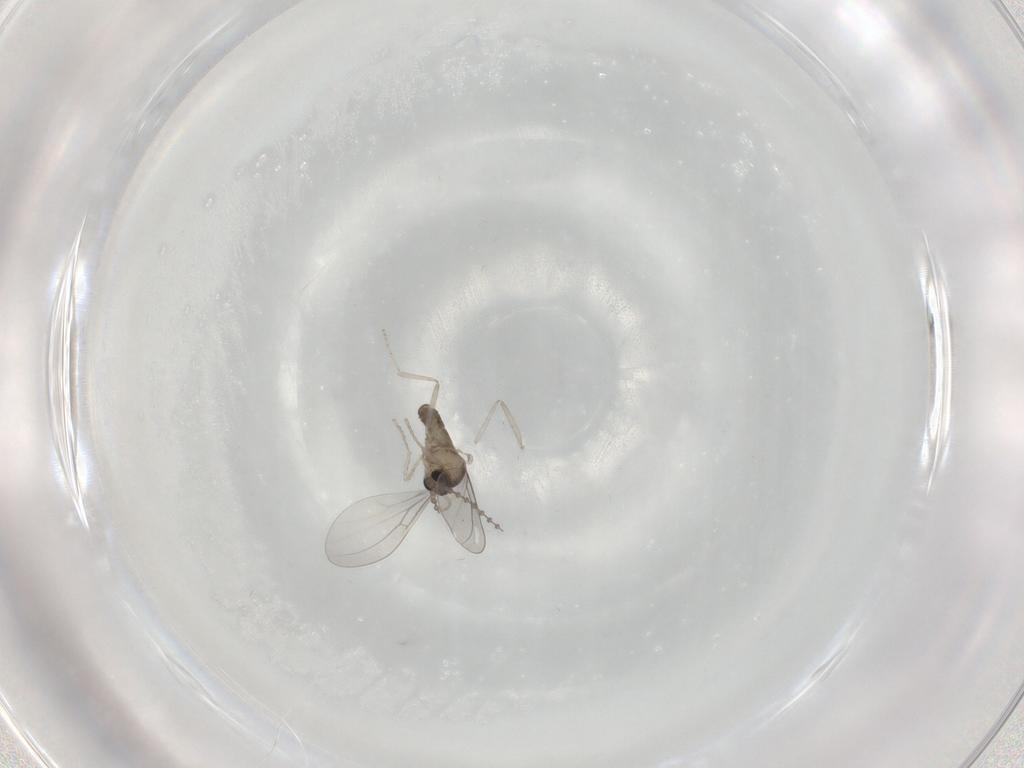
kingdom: Animalia
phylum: Arthropoda
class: Insecta
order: Diptera
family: Cecidomyiidae
